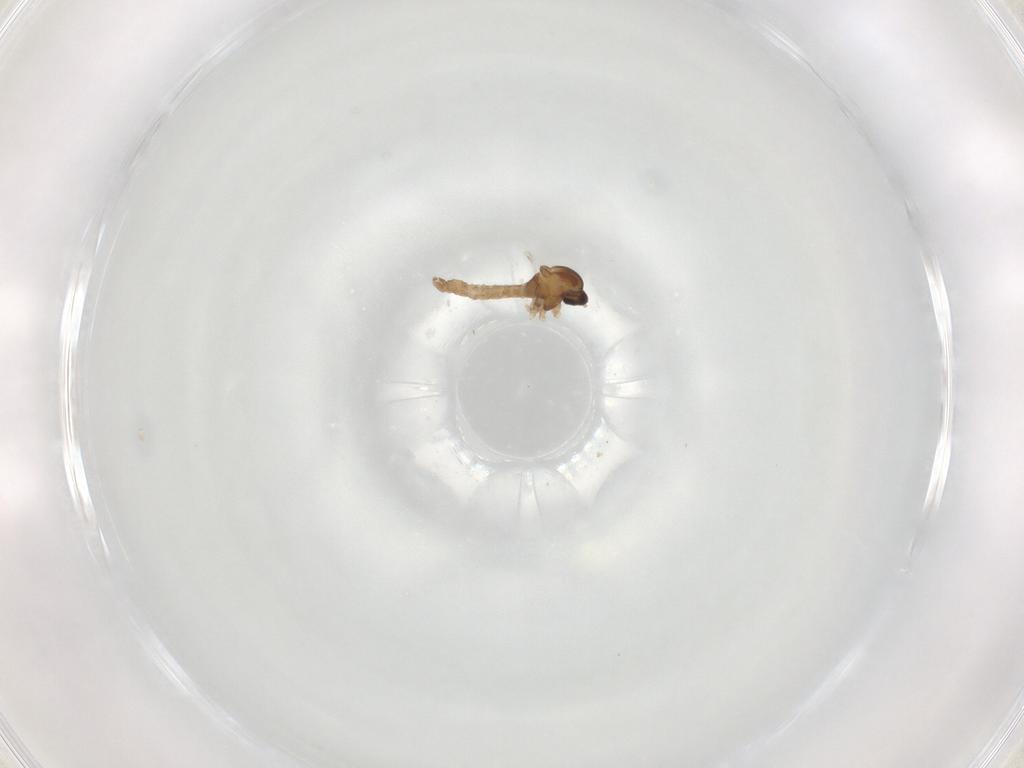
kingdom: Animalia
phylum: Arthropoda
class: Insecta
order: Diptera
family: Cecidomyiidae
